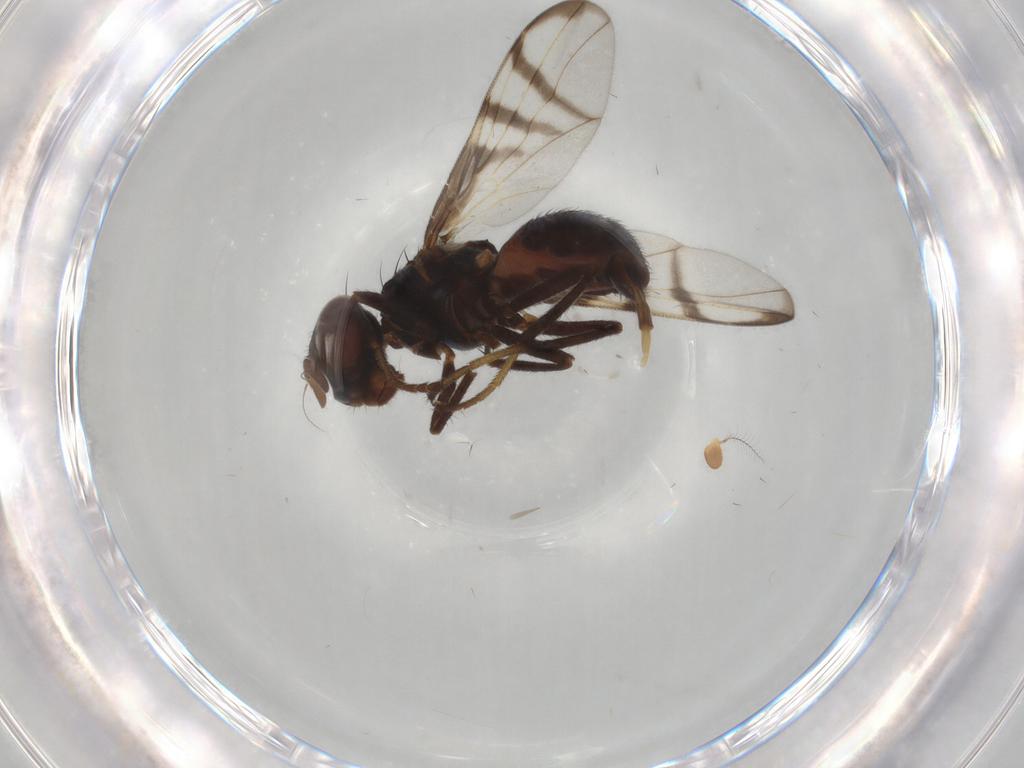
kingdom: Animalia
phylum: Arthropoda
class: Insecta
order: Diptera
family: Platystomatidae
